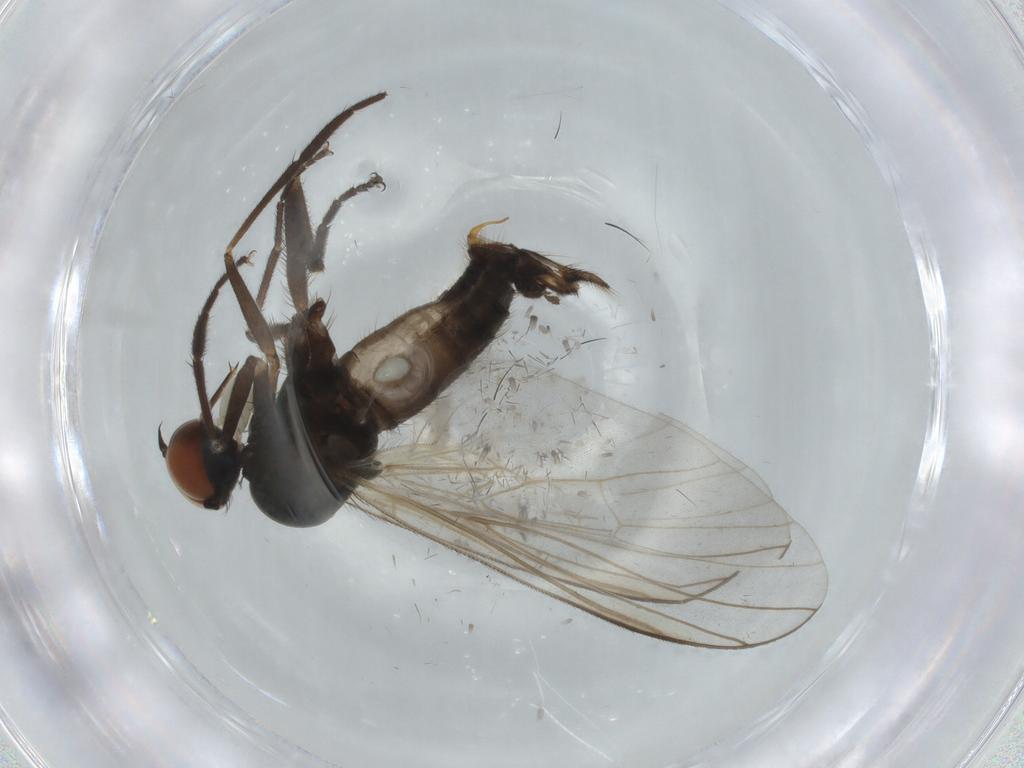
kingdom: Animalia
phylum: Arthropoda
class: Insecta
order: Diptera
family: Empididae
